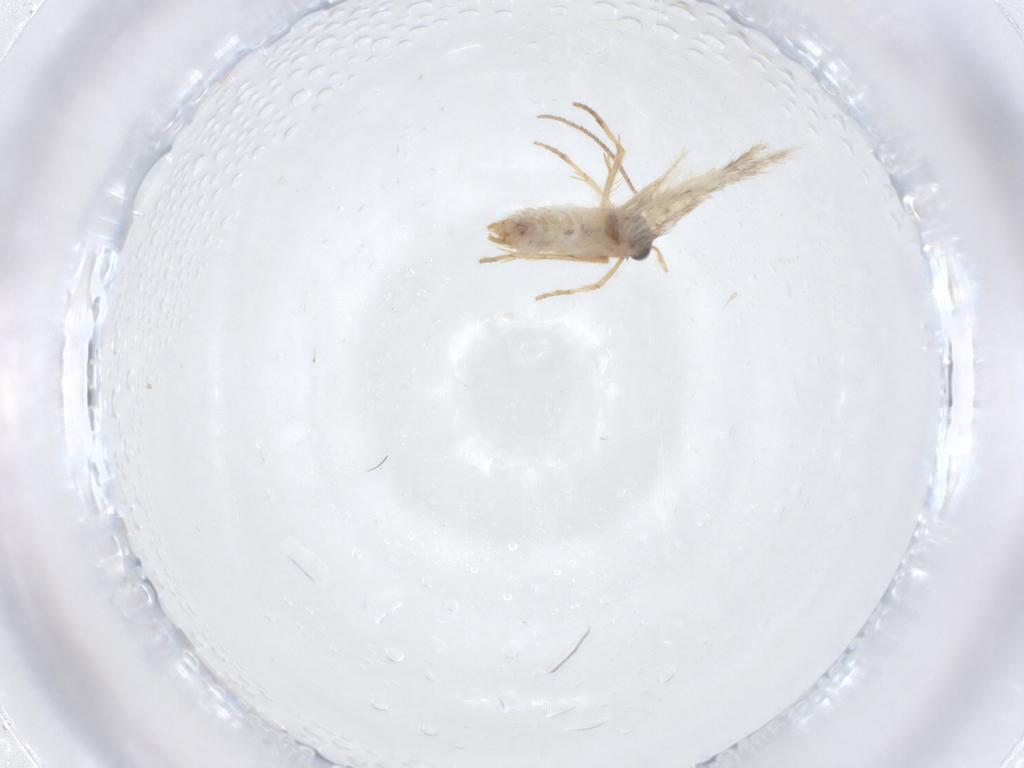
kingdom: Animalia
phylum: Arthropoda
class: Insecta
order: Lepidoptera
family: Nepticulidae
